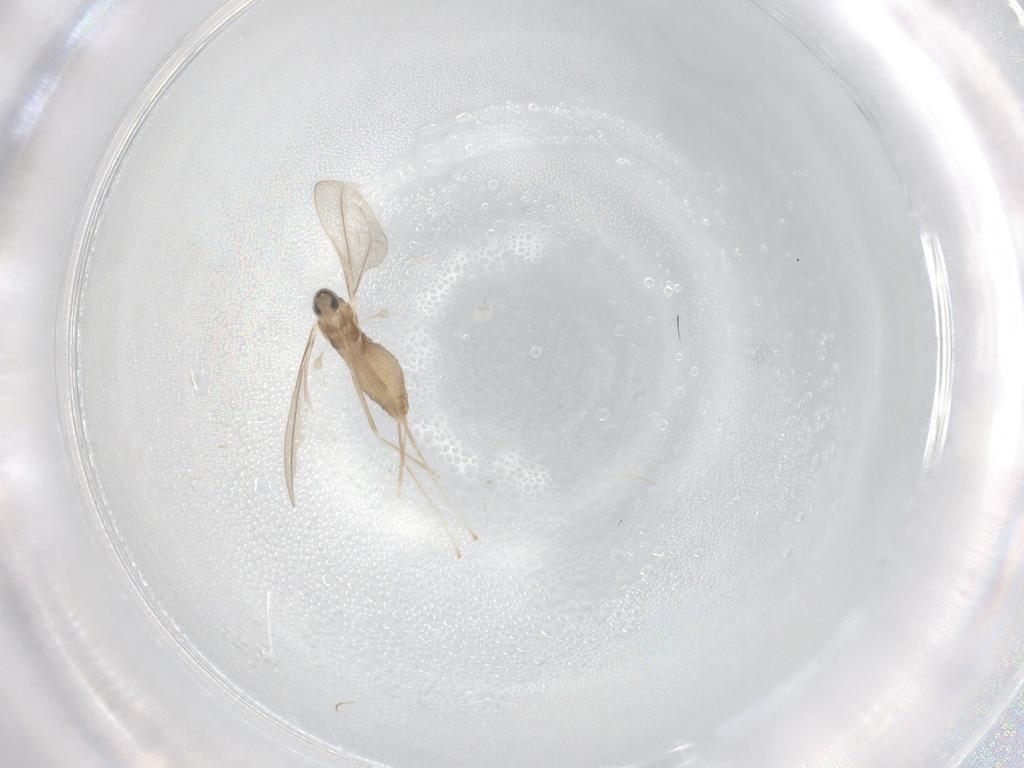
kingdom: Animalia
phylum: Arthropoda
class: Insecta
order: Diptera
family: Cecidomyiidae
